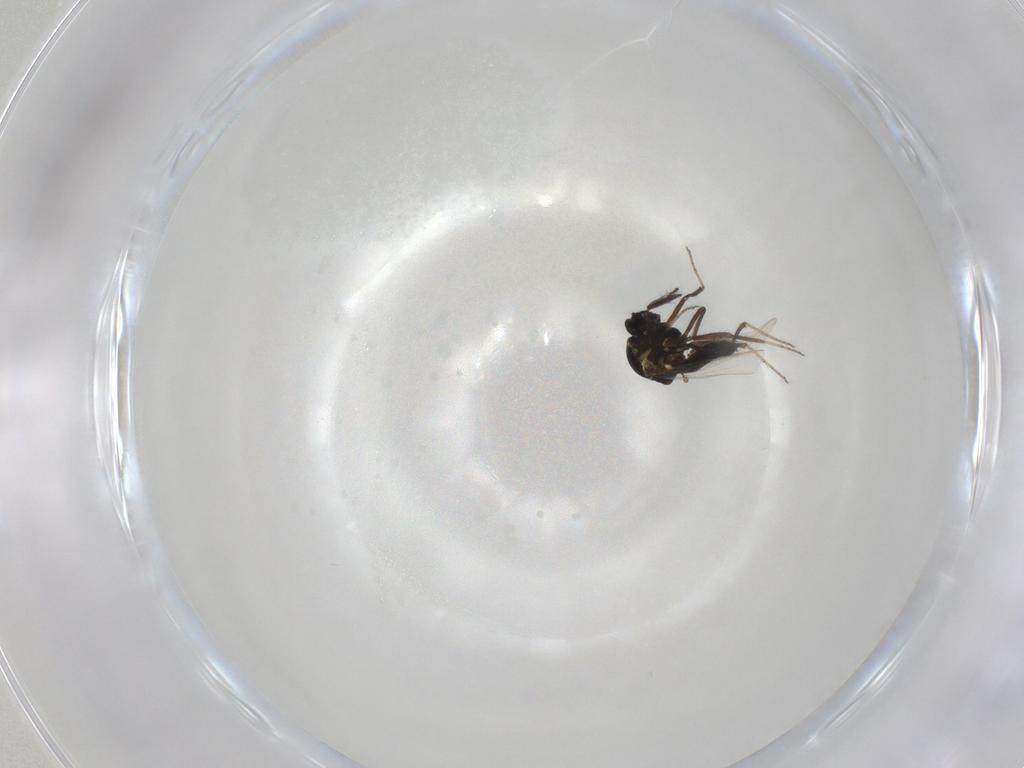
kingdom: Animalia
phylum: Arthropoda
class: Insecta
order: Diptera
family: Ceratopogonidae
